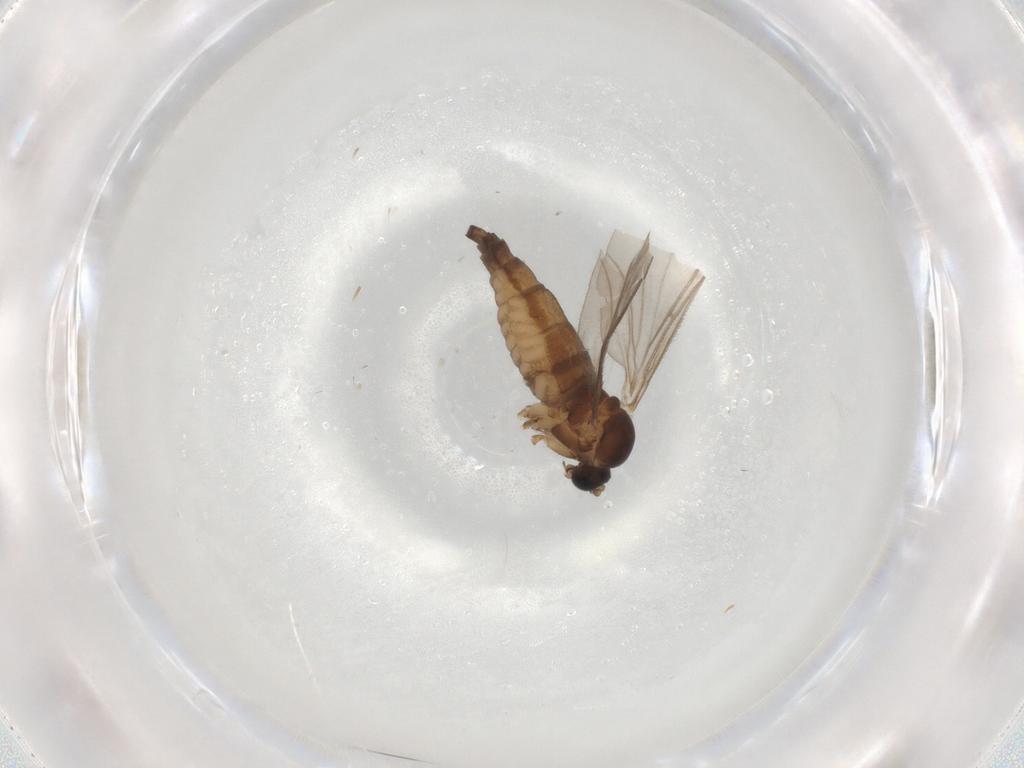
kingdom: Animalia
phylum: Arthropoda
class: Insecta
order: Diptera
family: Sciaridae
